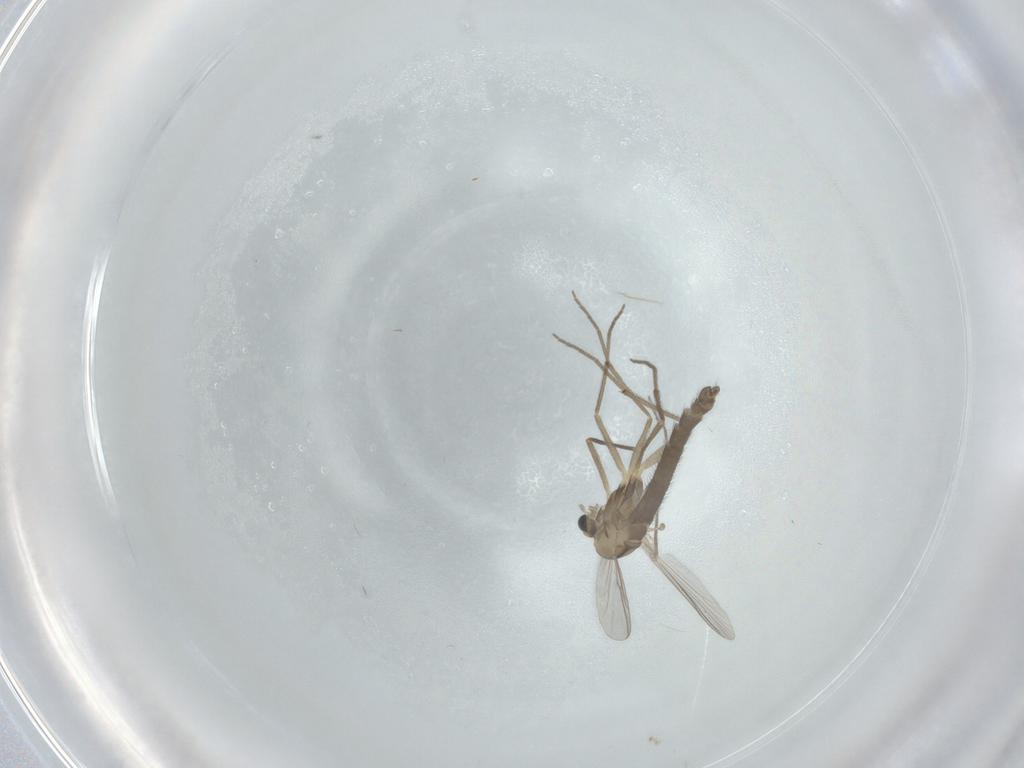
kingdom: Animalia
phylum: Arthropoda
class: Insecta
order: Diptera
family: Chironomidae
